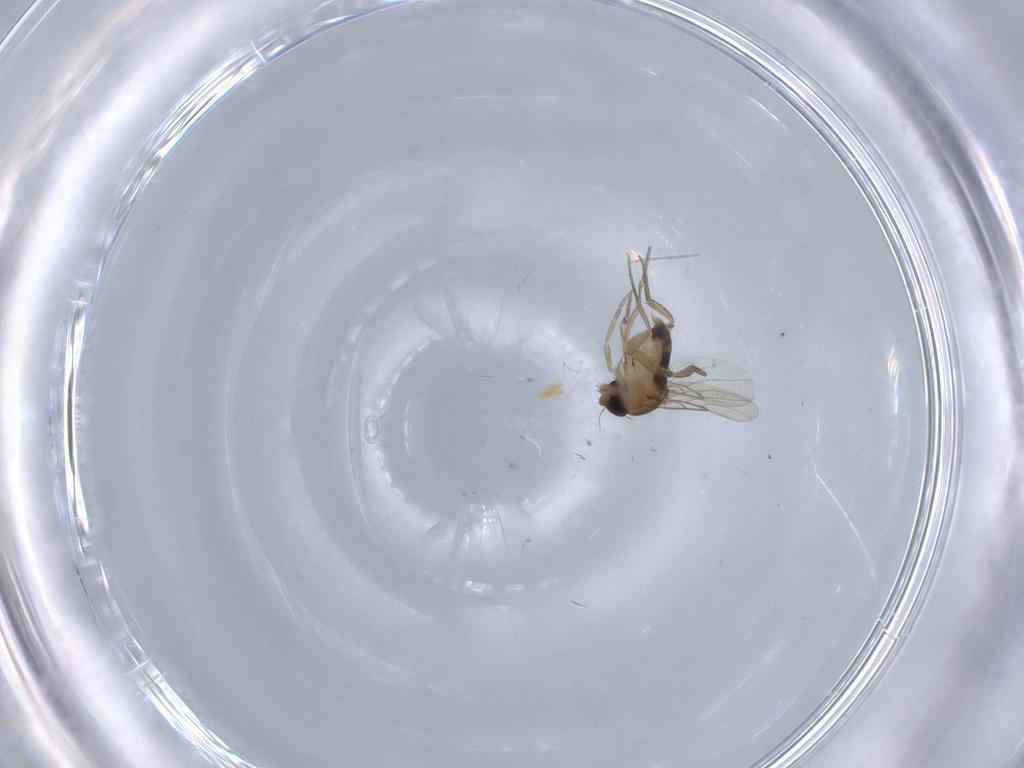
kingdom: Animalia
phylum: Arthropoda
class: Insecta
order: Diptera
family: Phoridae
